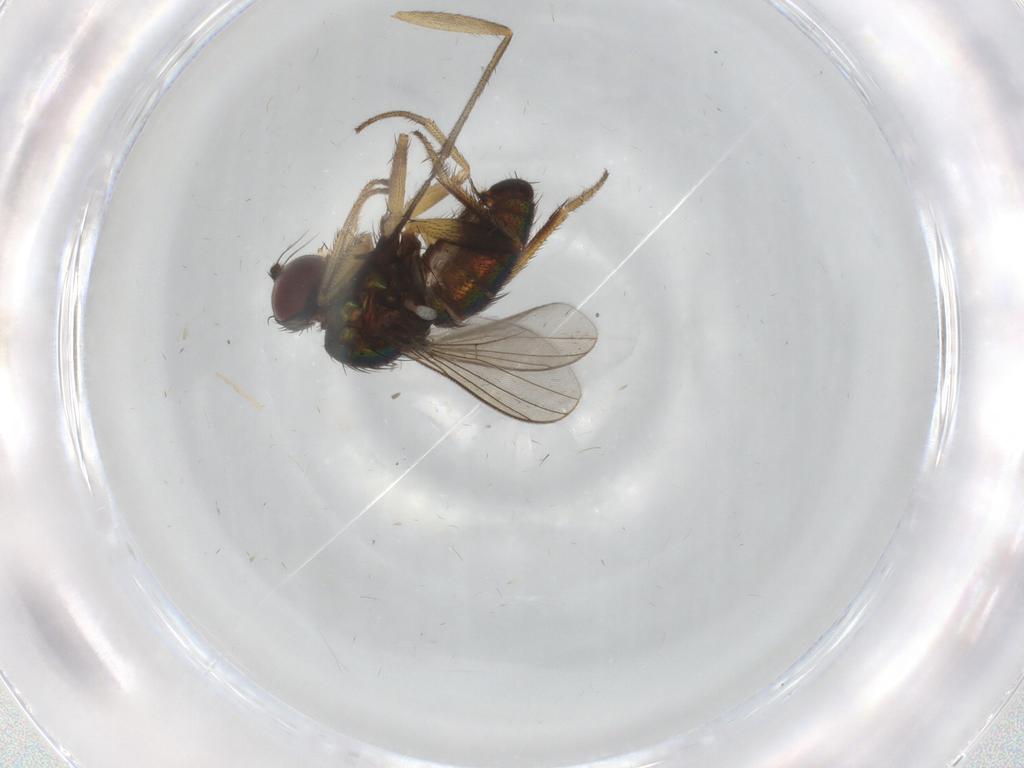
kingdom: Animalia
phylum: Arthropoda
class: Insecta
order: Diptera
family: Dolichopodidae
